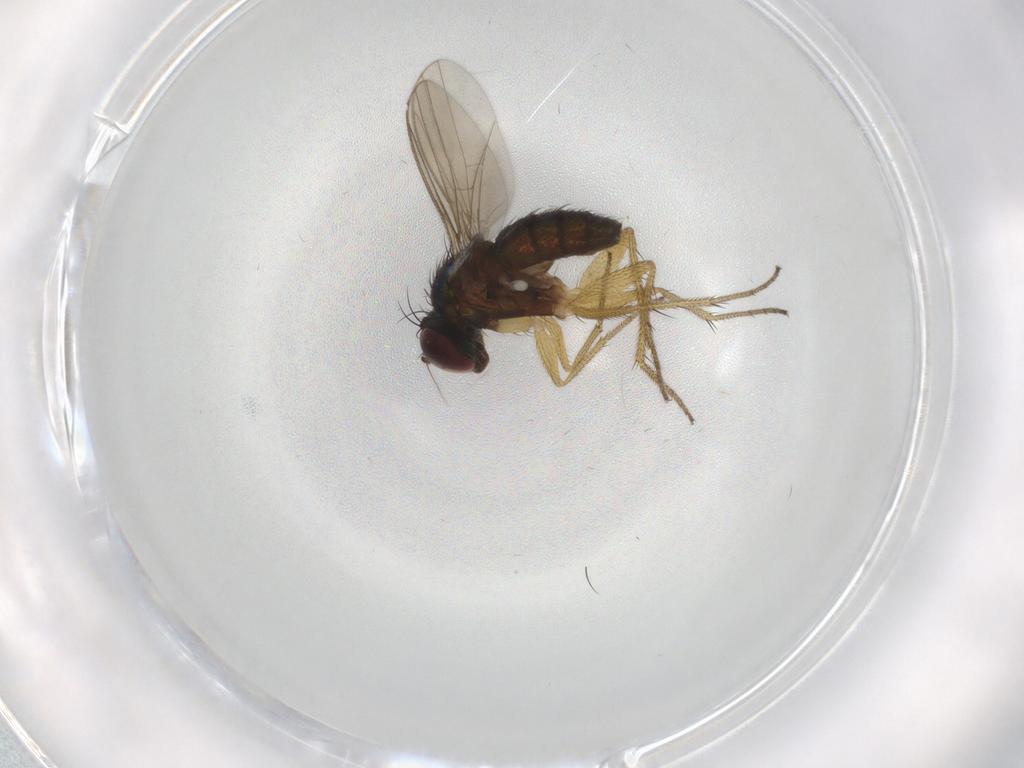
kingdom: Animalia
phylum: Arthropoda
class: Insecta
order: Diptera
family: Dolichopodidae
